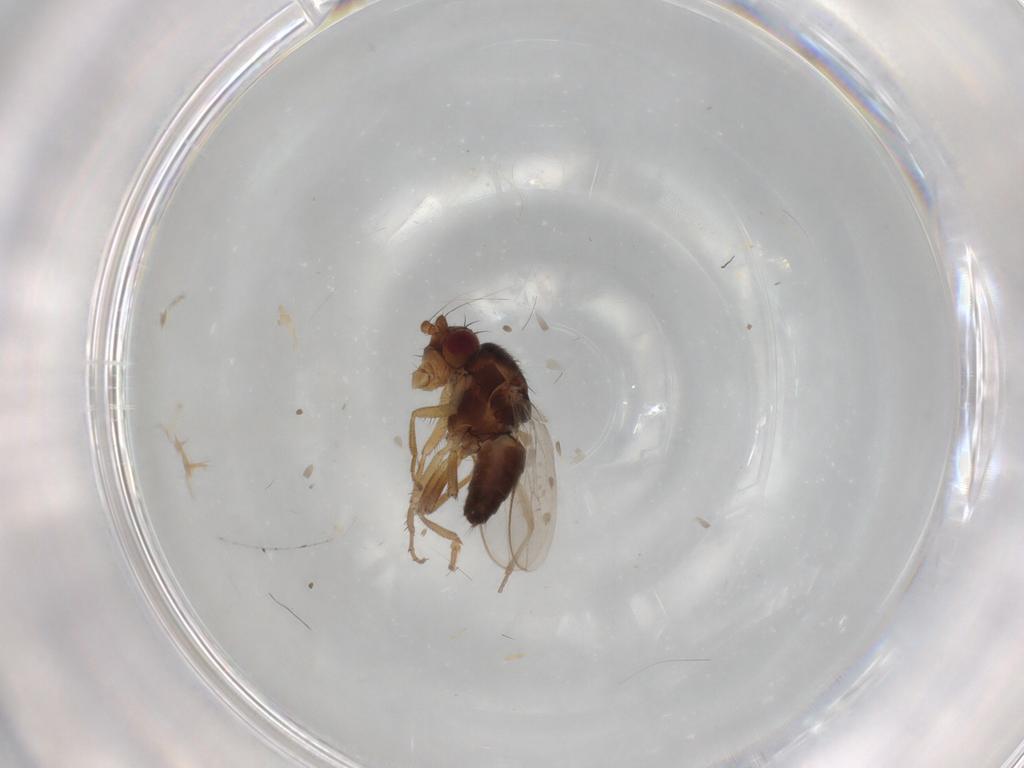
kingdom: Animalia
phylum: Arthropoda
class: Insecta
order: Diptera
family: Sciaridae
